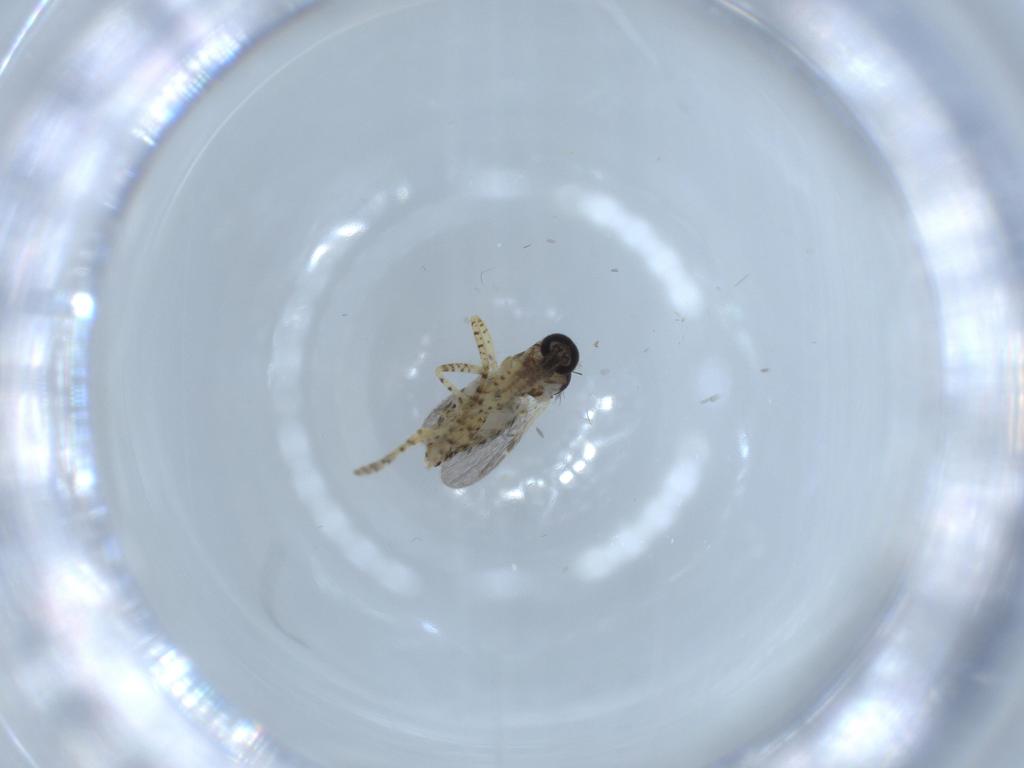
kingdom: Animalia
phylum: Arthropoda
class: Insecta
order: Diptera
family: Ceratopogonidae
